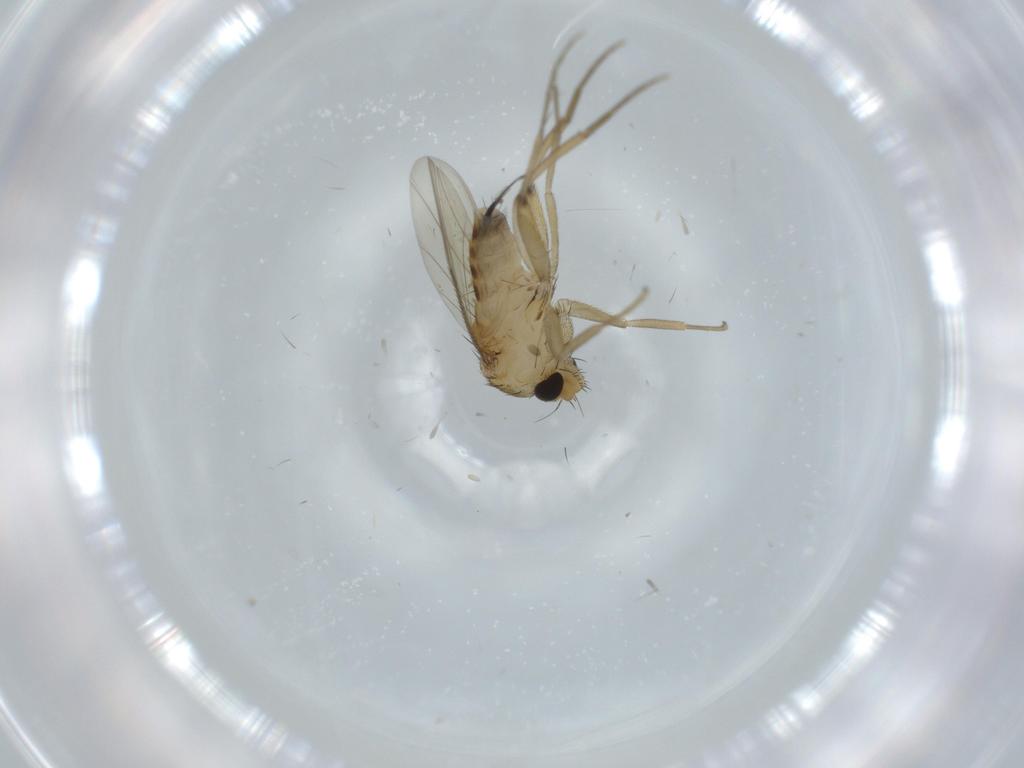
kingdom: Animalia
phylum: Arthropoda
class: Insecta
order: Diptera
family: Phoridae
